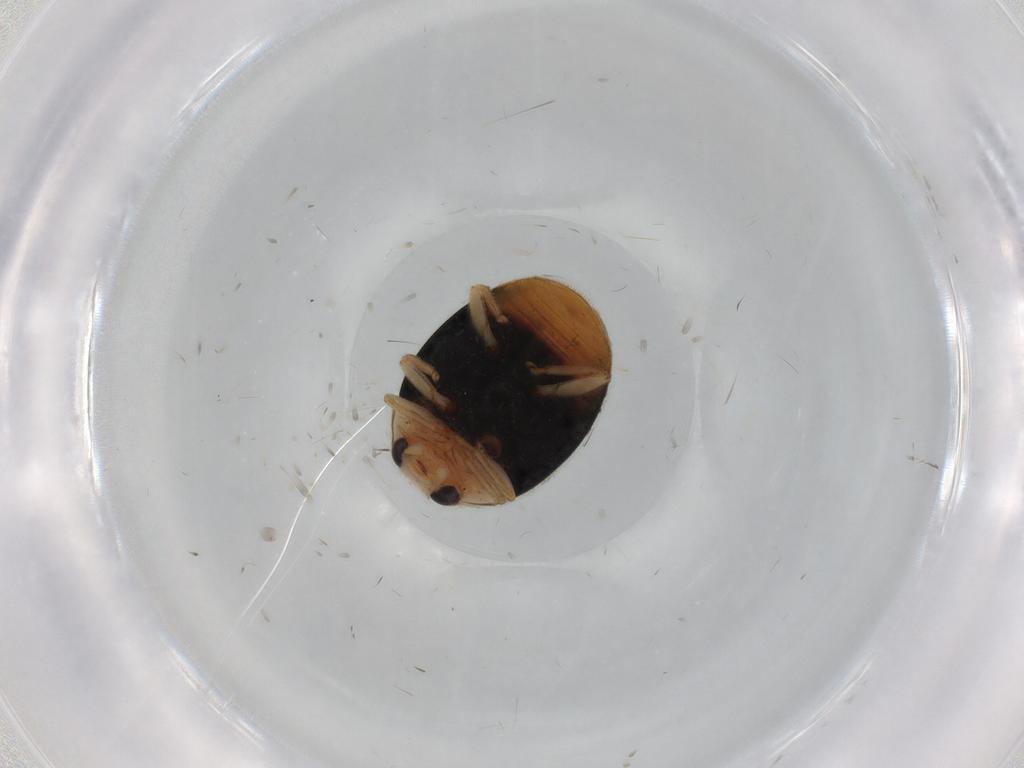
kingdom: Animalia
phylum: Arthropoda
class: Insecta
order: Coleoptera
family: Coccinellidae
